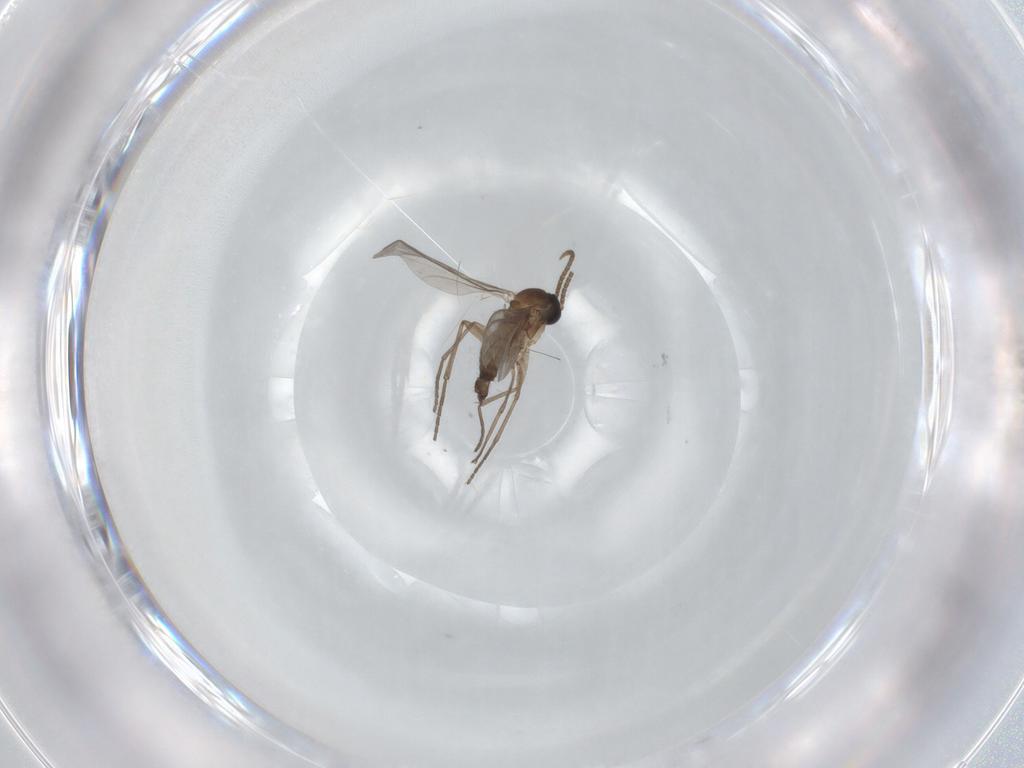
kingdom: Animalia
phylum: Arthropoda
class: Insecta
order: Diptera
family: Sciaridae
